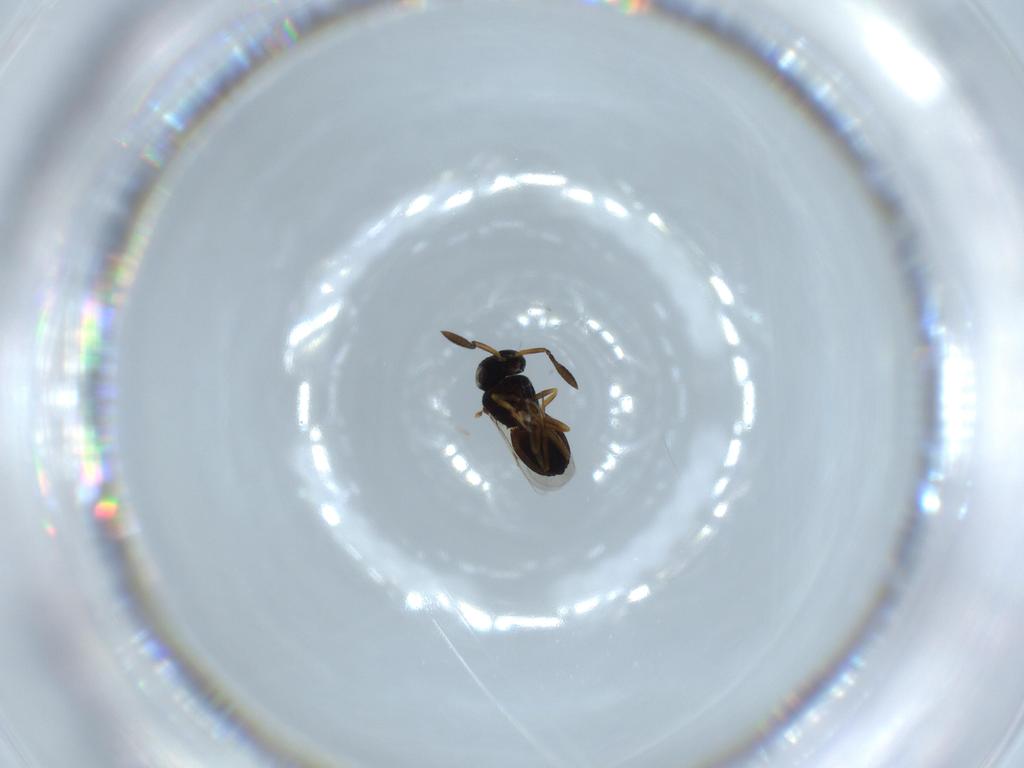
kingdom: Animalia
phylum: Arthropoda
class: Insecta
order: Hymenoptera
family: Scelionidae
